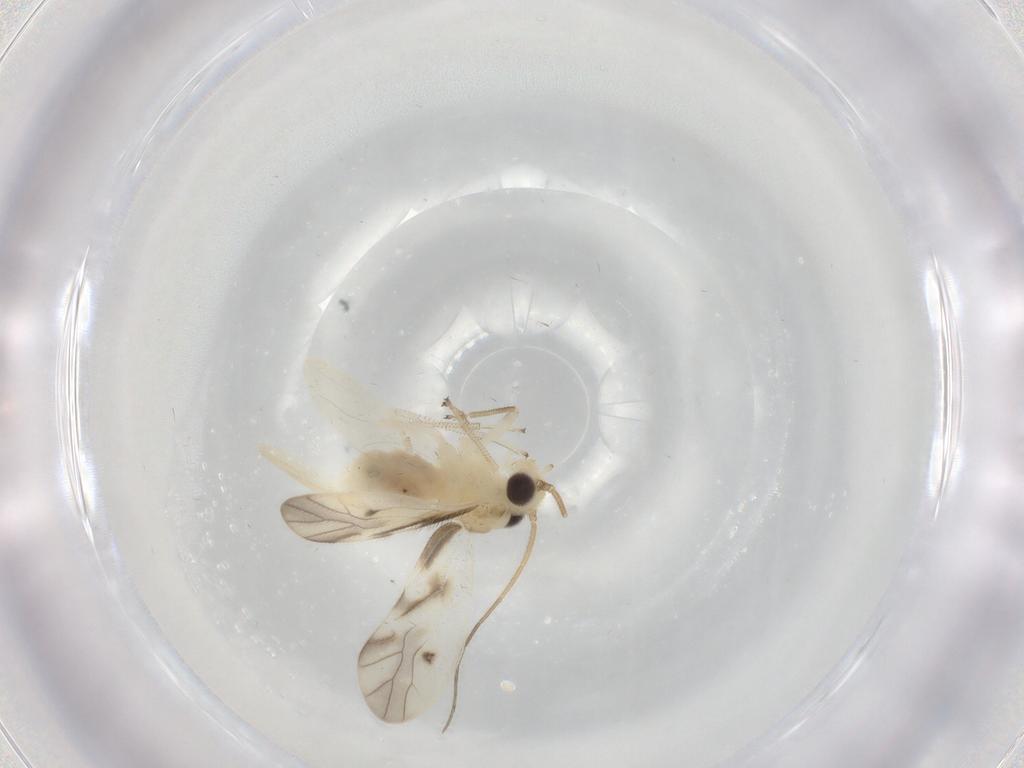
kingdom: Animalia
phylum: Arthropoda
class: Insecta
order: Psocodea
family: Caeciliusidae
